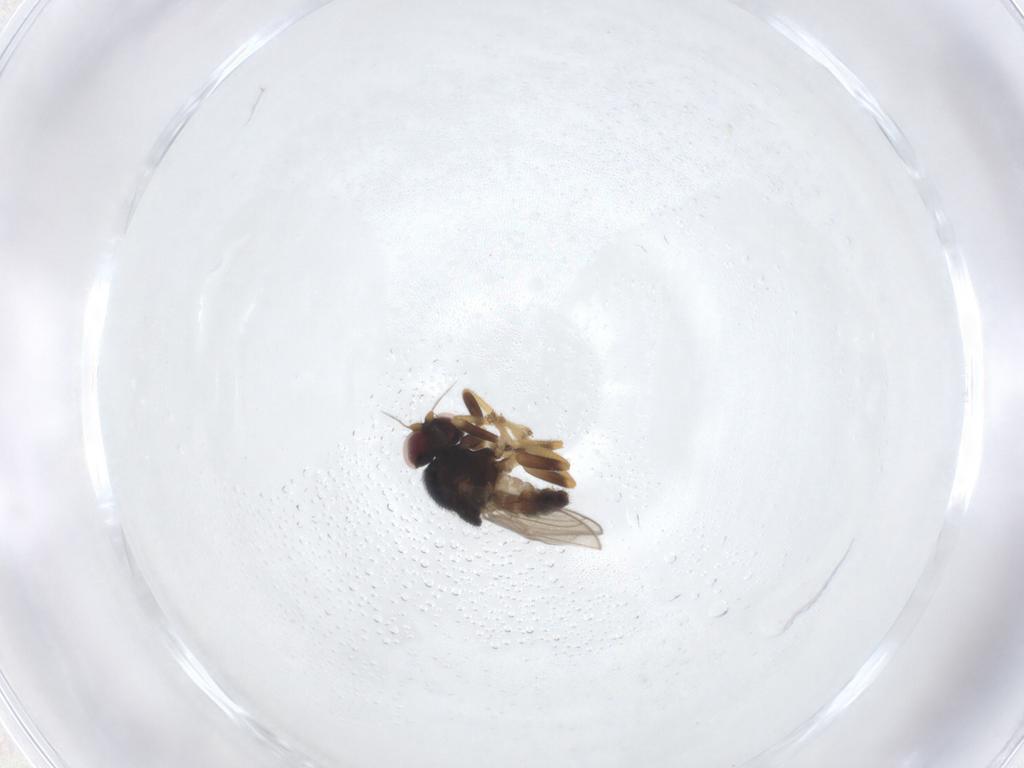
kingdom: Animalia
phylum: Arthropoda
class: Insecta
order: Diptera
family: Chloropidae
